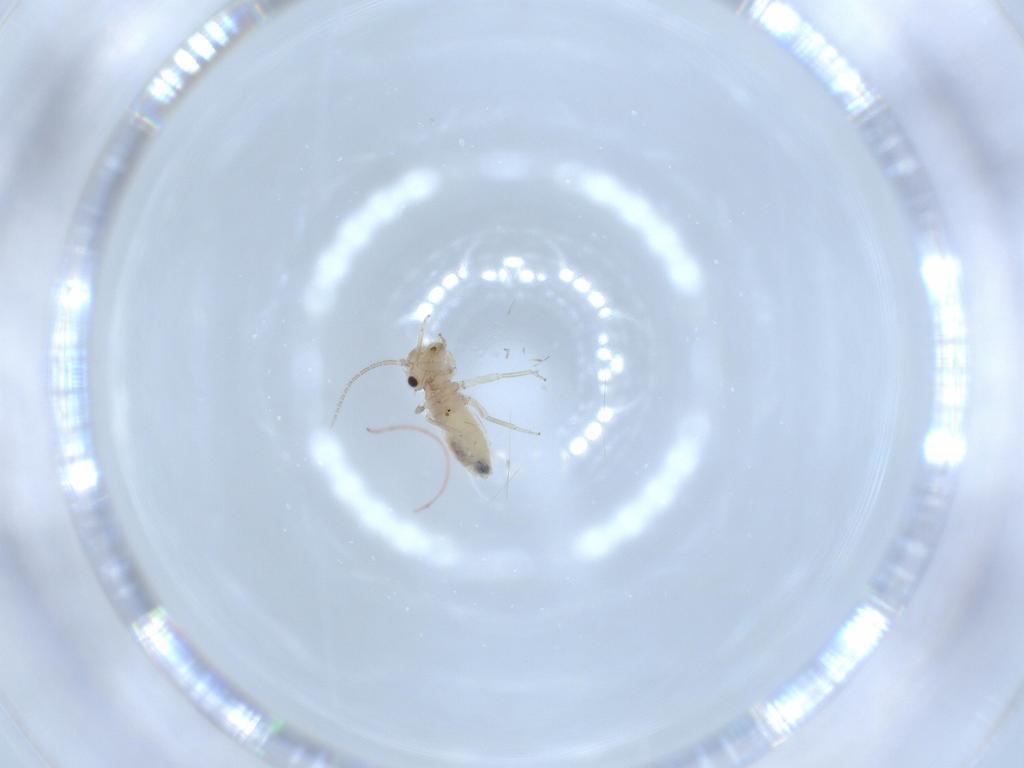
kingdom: Animalia
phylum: Arthropoda
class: Insecta
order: Psocodea
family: Caeciliusidae
